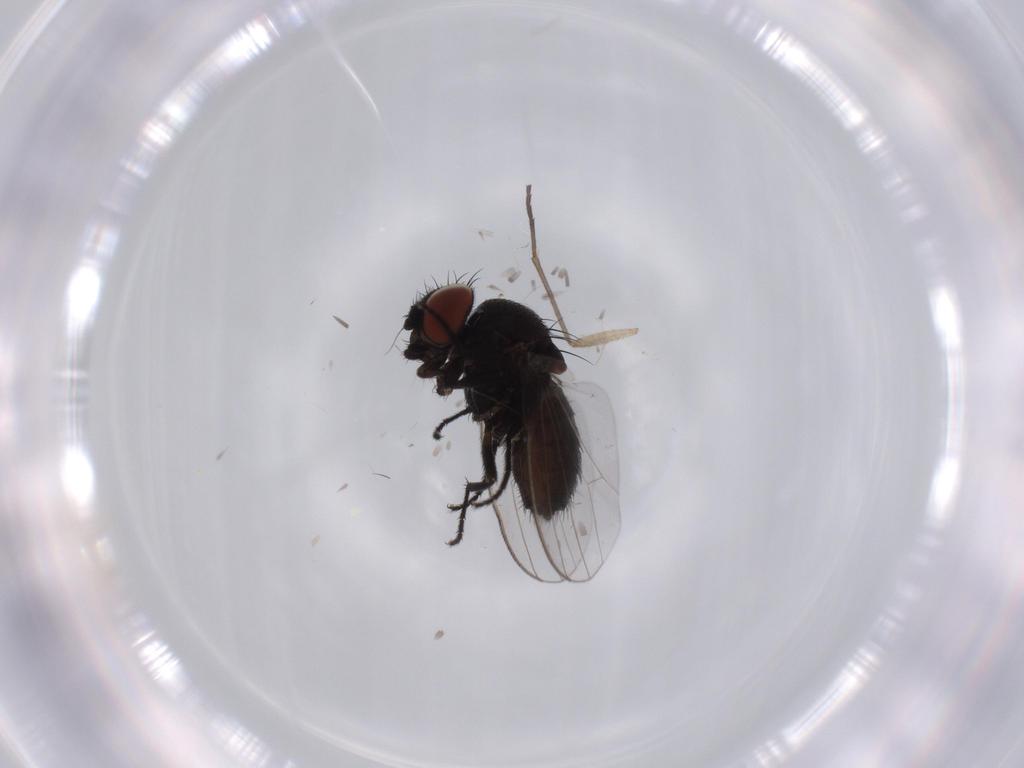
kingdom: Animalia
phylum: Arthropoda
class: Insecta
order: Diptera
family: Milichiidae
